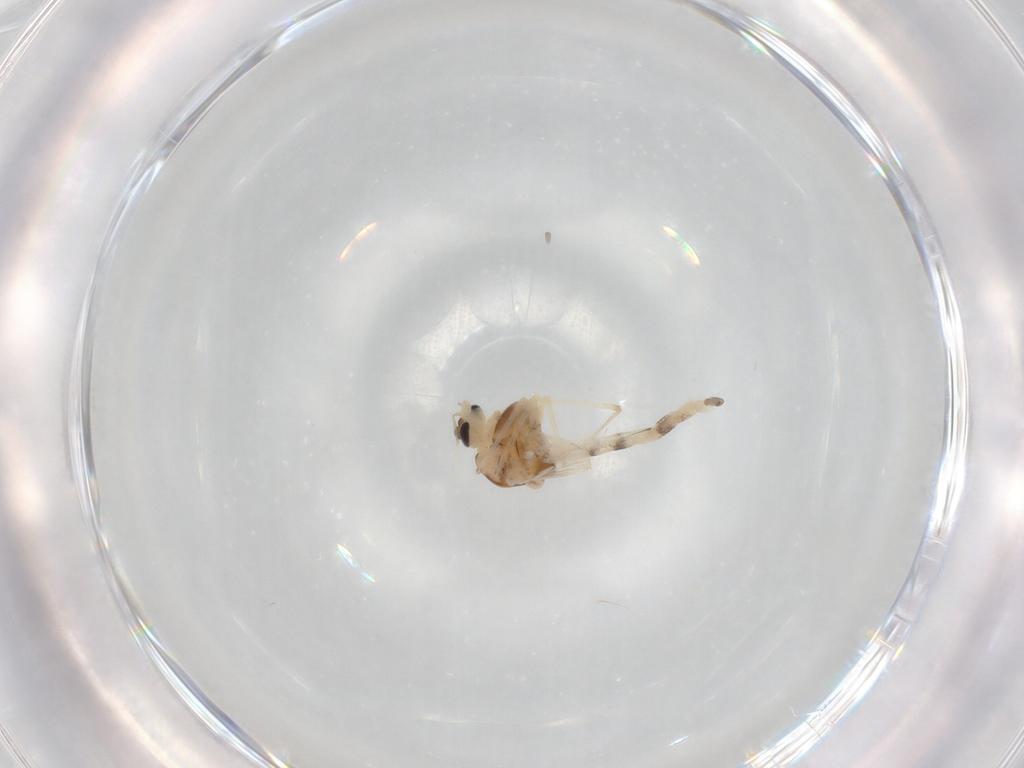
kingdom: Animalia
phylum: Arthropoda
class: Insecta
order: Diptera
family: Chironomidae
